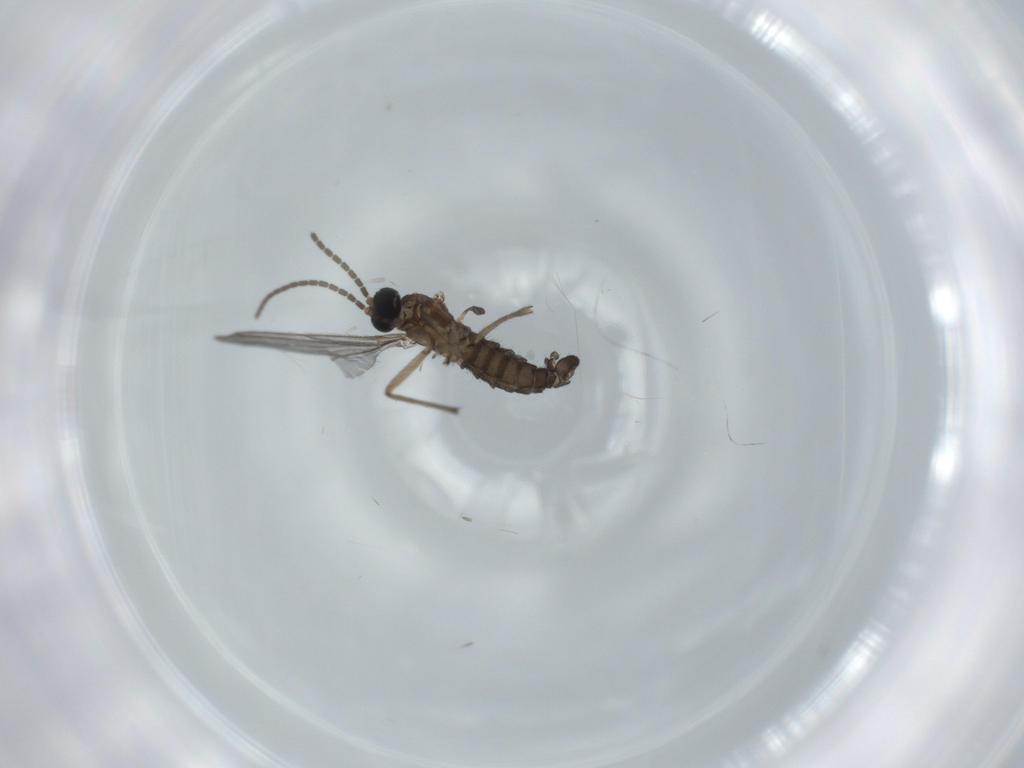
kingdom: Animalia
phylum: Arthropoda
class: Insecta
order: Diptera
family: Sciaridae
